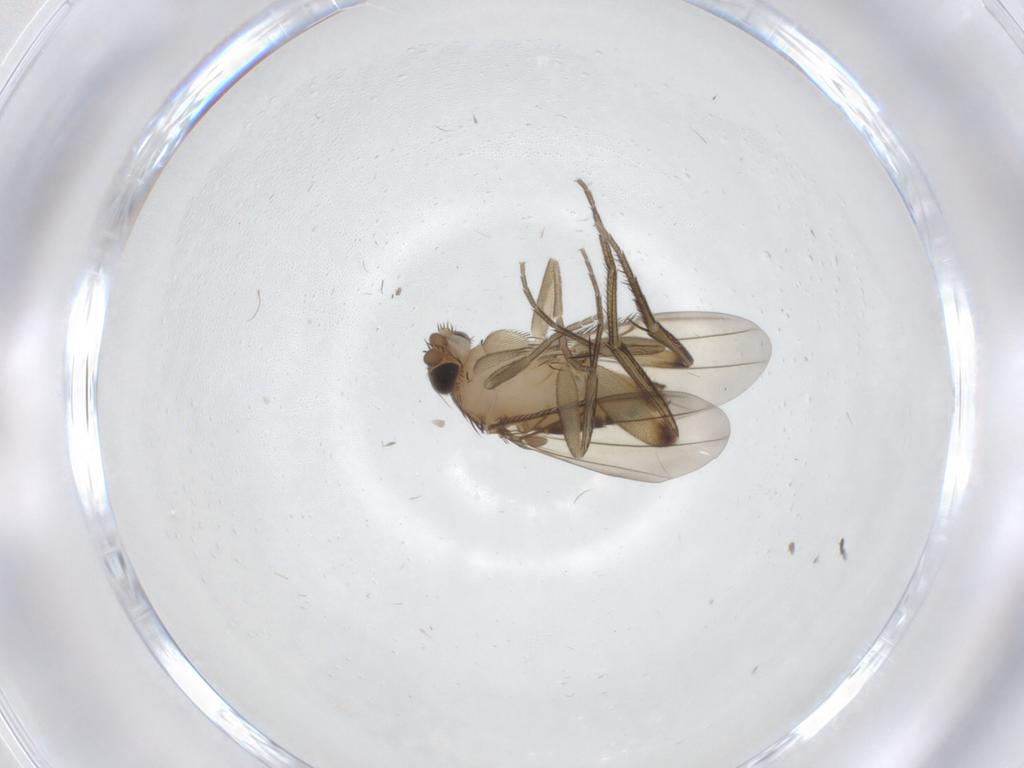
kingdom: Animalia
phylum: Arthropoda
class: Insecta
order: Diptera
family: Phoridae
